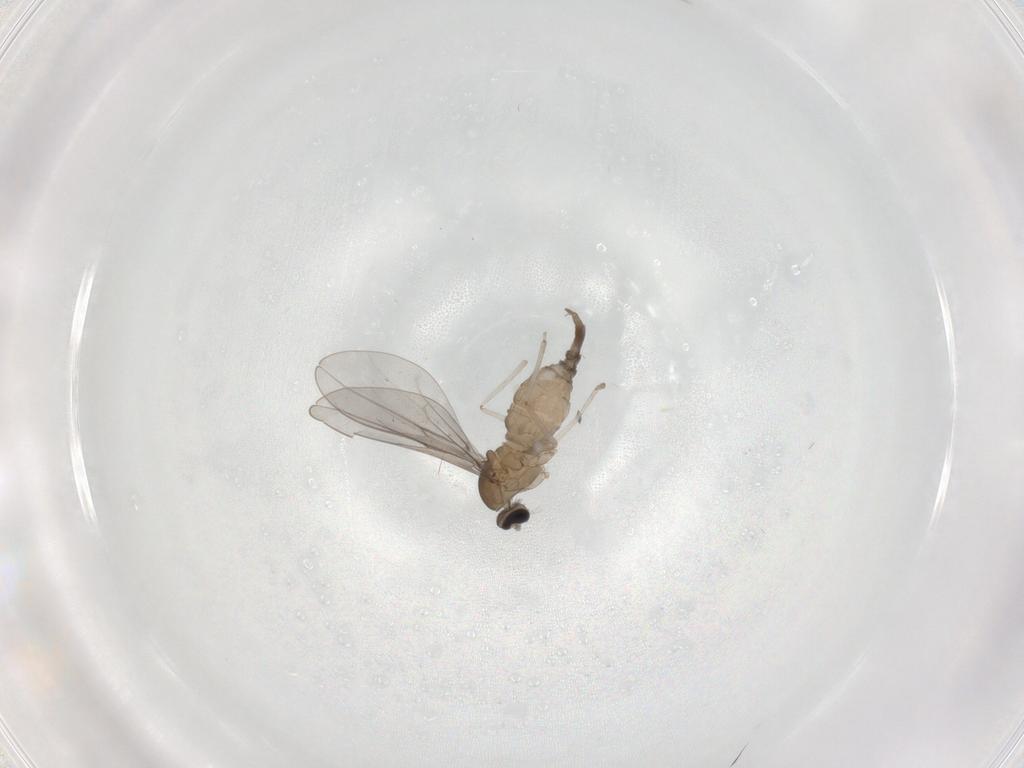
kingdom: Animalia
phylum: Arthropoda
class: Insecta
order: Diptera
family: Cecidomyiidae
